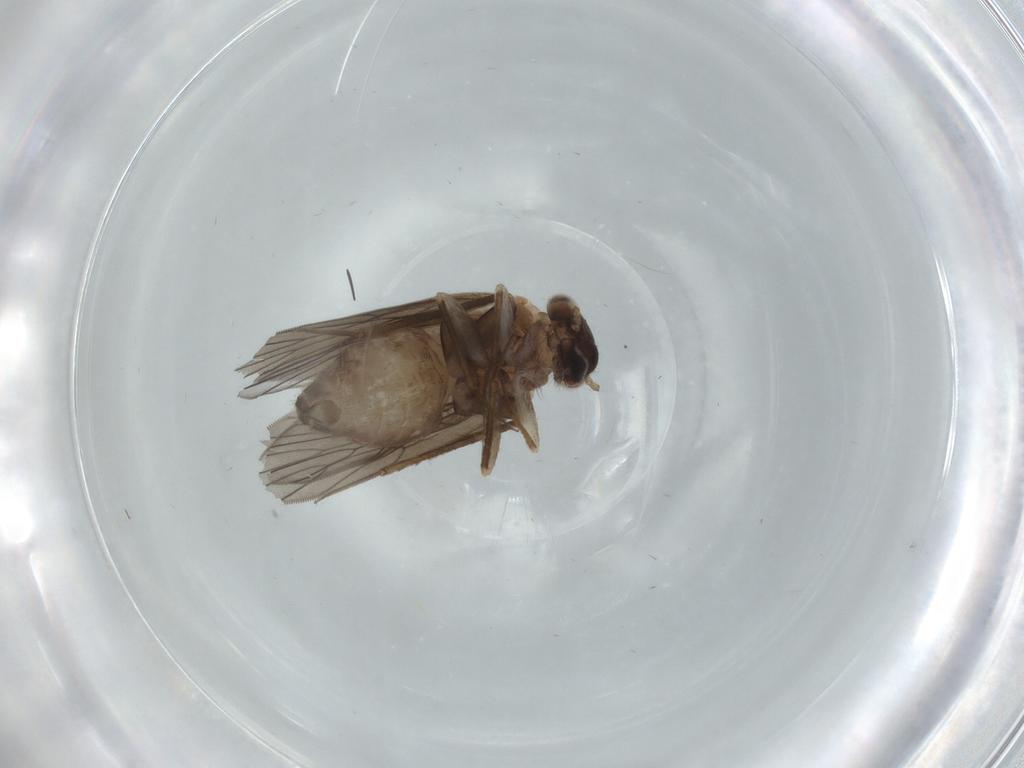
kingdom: Animalia
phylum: Arthropoda
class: Insecta
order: Psocodea
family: Lepidopsocidae
